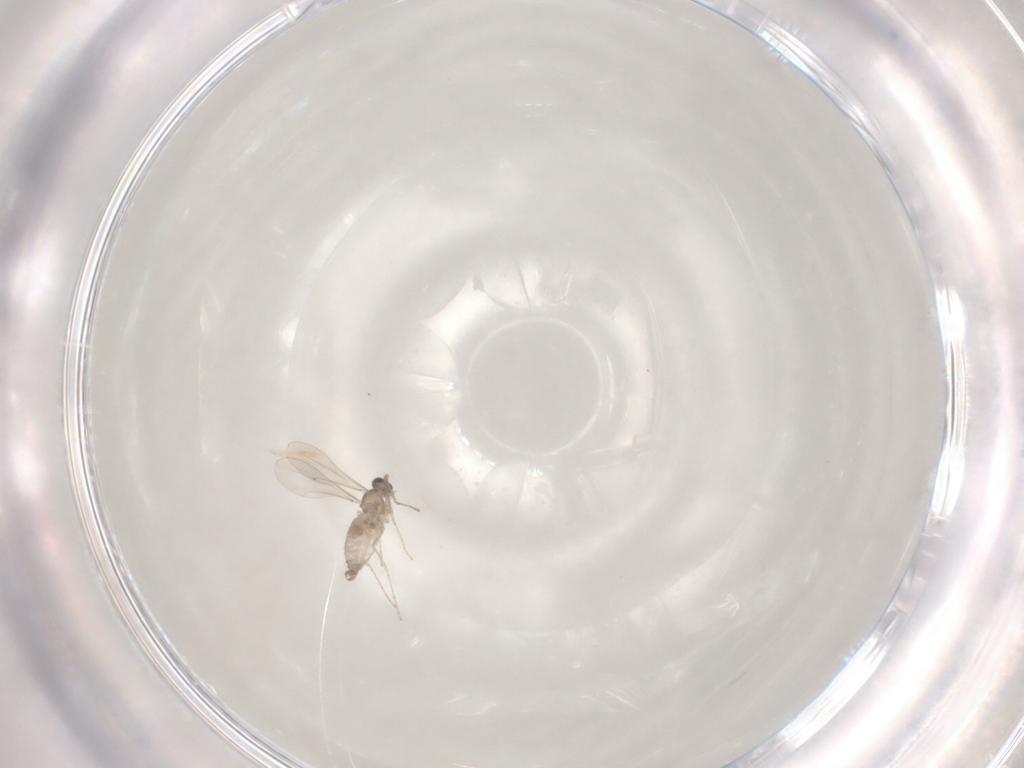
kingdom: Animalia
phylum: Arthropoda
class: Insecta
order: Diptera
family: Cecidomyiidae
